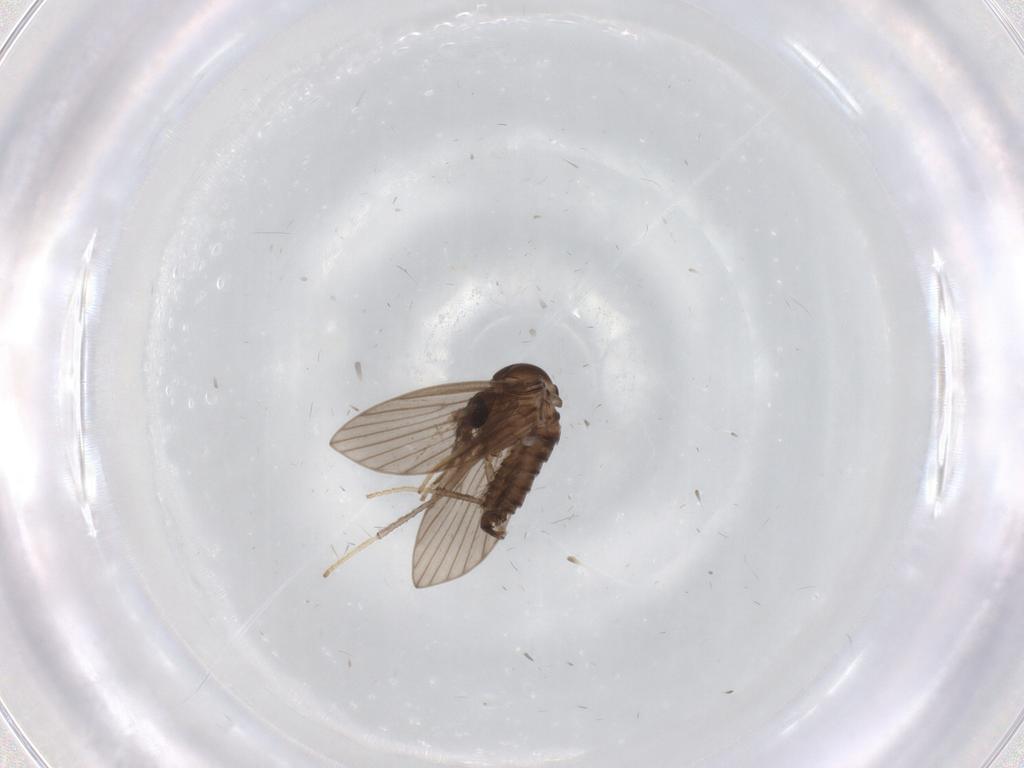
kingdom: Animalia
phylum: Arthropoda
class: Insecta
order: Diptera
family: Psychodidae
